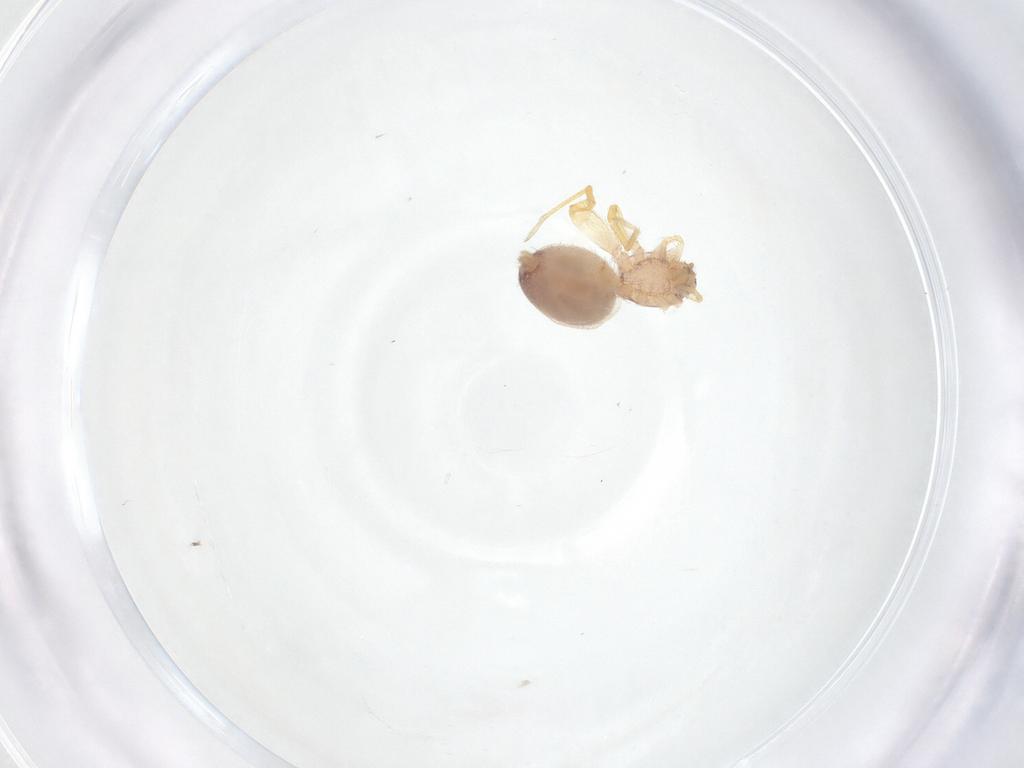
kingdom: Animalia
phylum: Arthropoda
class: Arachnida
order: Araneae
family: Idiopidae
